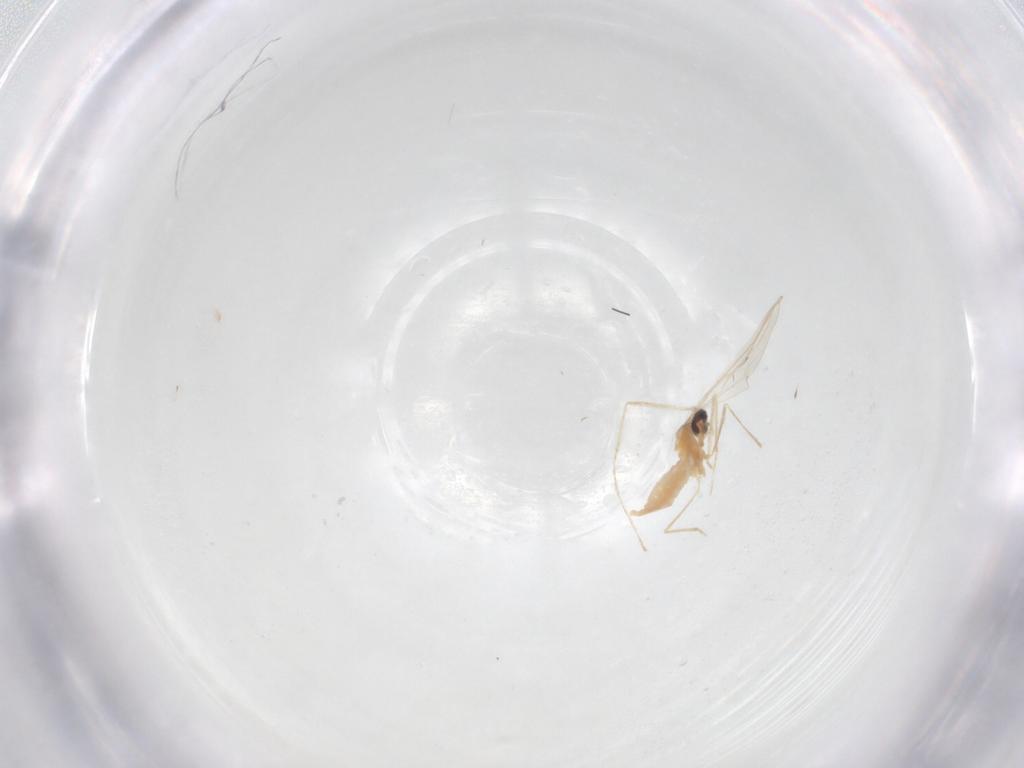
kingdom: Animalia
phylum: Arthropoda
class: Insecta
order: Diptera
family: Cecidomyiidae
